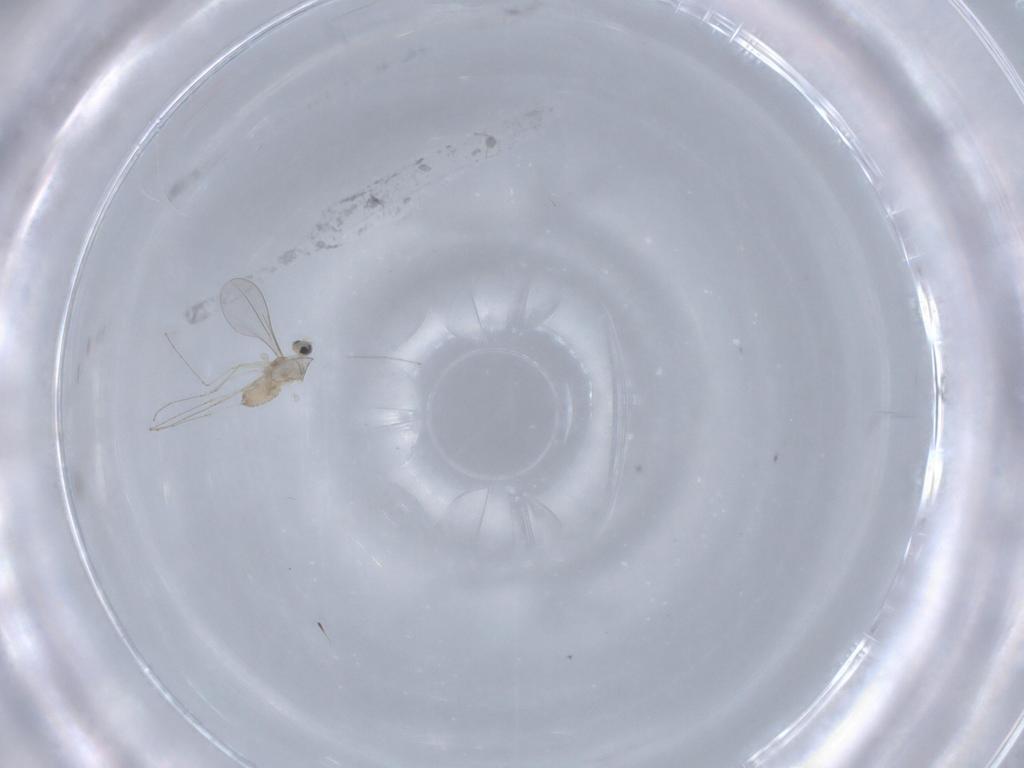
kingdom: Animalia
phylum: Arthropoda
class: Insecta
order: Diptera
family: Cecidomyiidae
